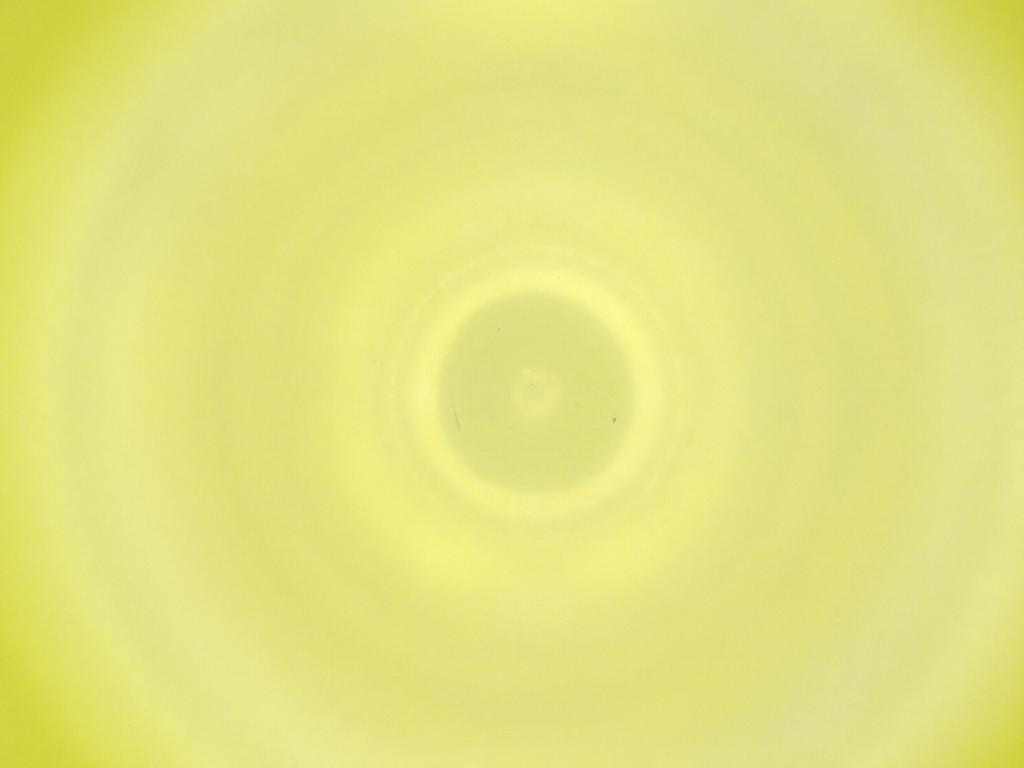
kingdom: Animalia
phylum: Arthropoda
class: Insecta
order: Diptera
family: Cecidomyiidae
